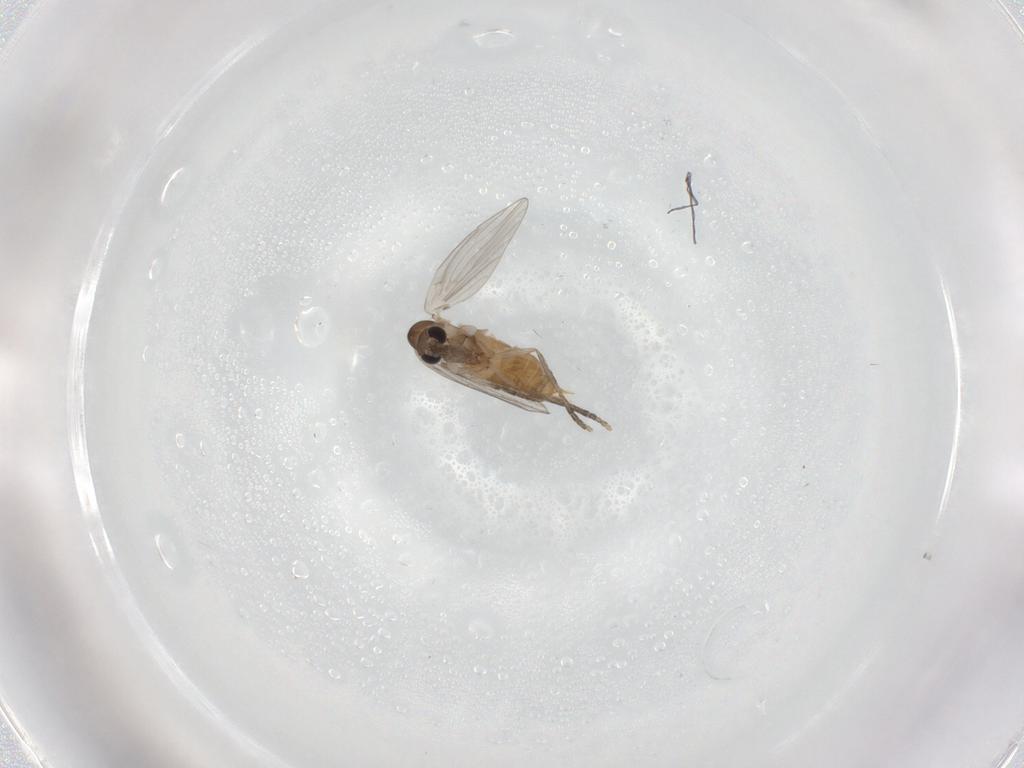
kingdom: Animalia
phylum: Arthropoda
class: Insecta
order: Diptera
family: Psychodidae
